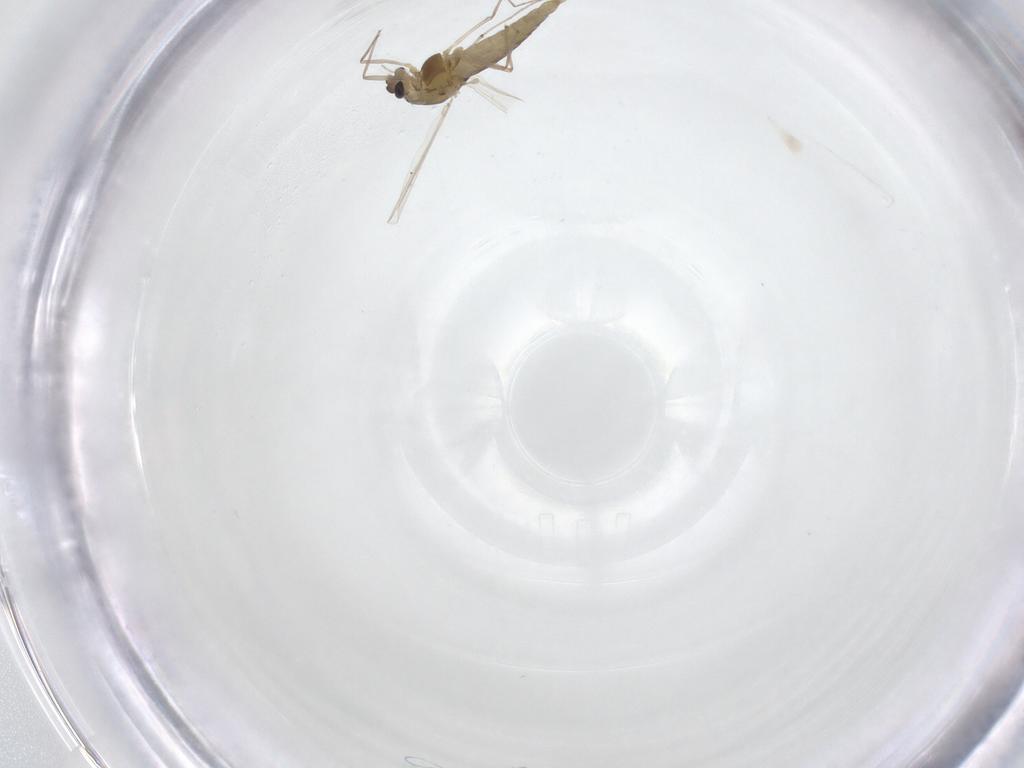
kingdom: Animalia
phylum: Arthropoda
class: Insecta
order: Diptera
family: Chironomidae
